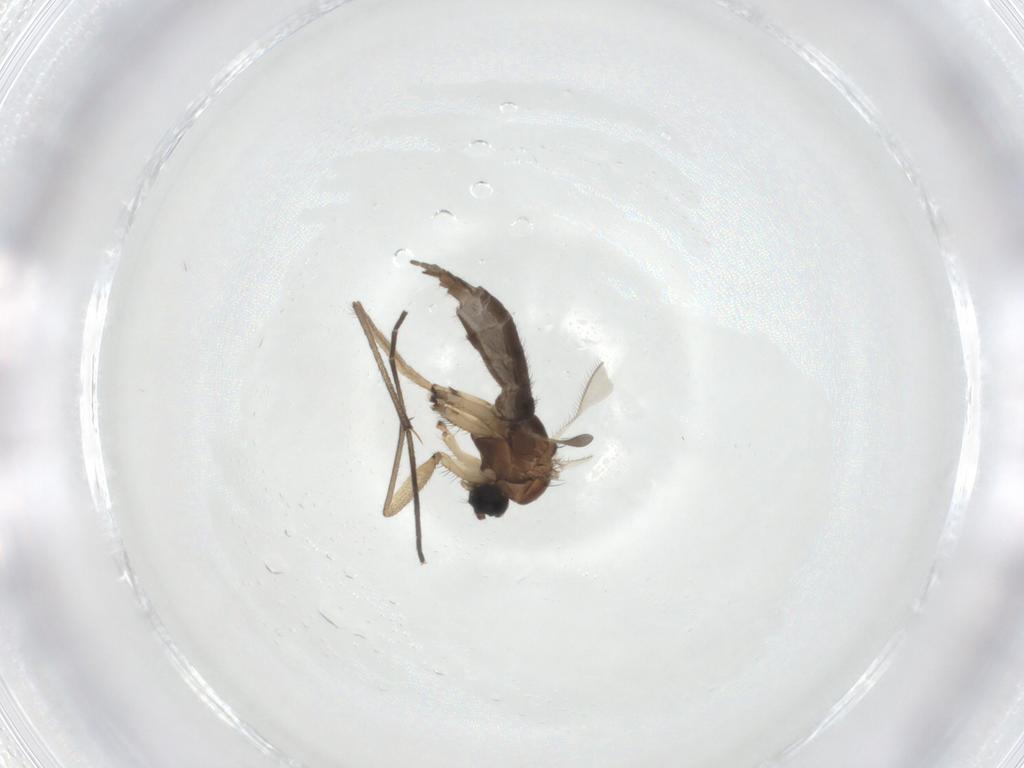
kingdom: Animalia
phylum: Arthropoda
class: Insecta
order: Diptera
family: Sciaridae
